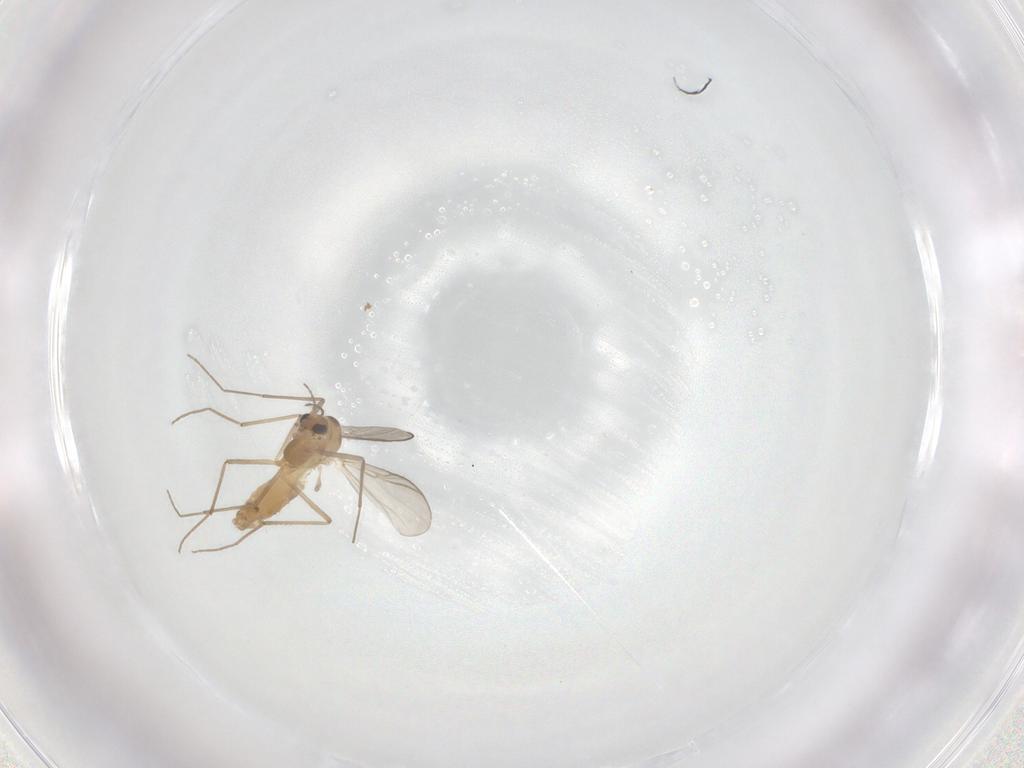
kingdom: Animalia
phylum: Arthropoda
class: Insecta
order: Diptera
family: Chironomidae
